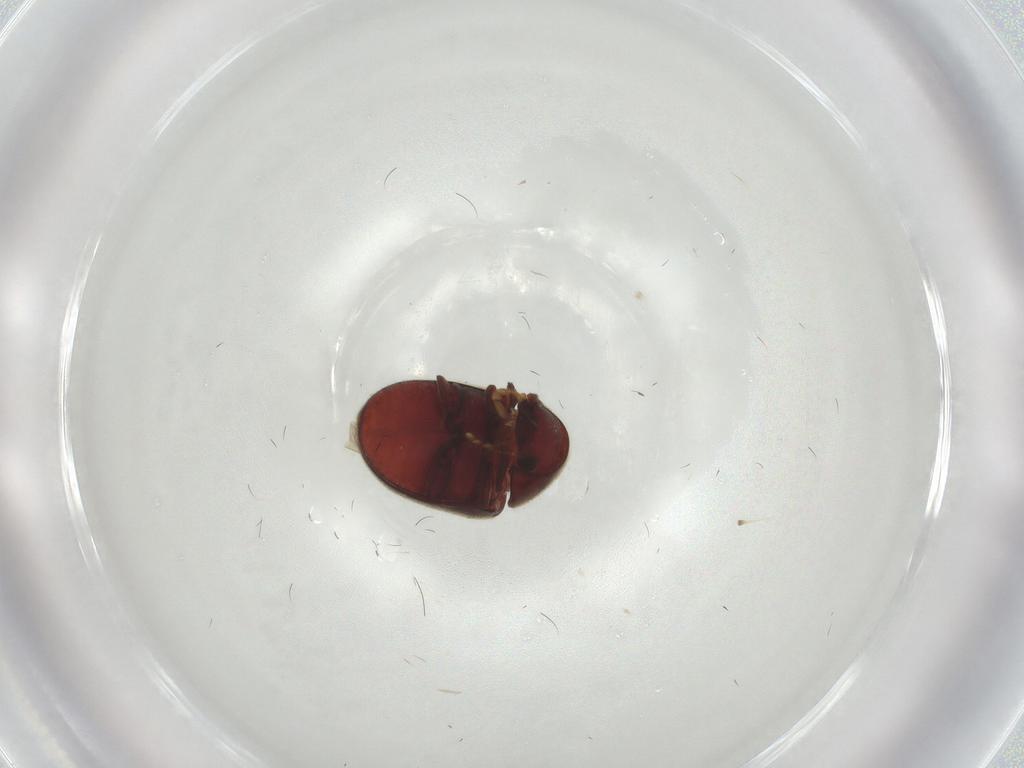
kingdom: Animalia
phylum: Arthropoda
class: Insecta
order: Coleoptera
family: Ptinidae
